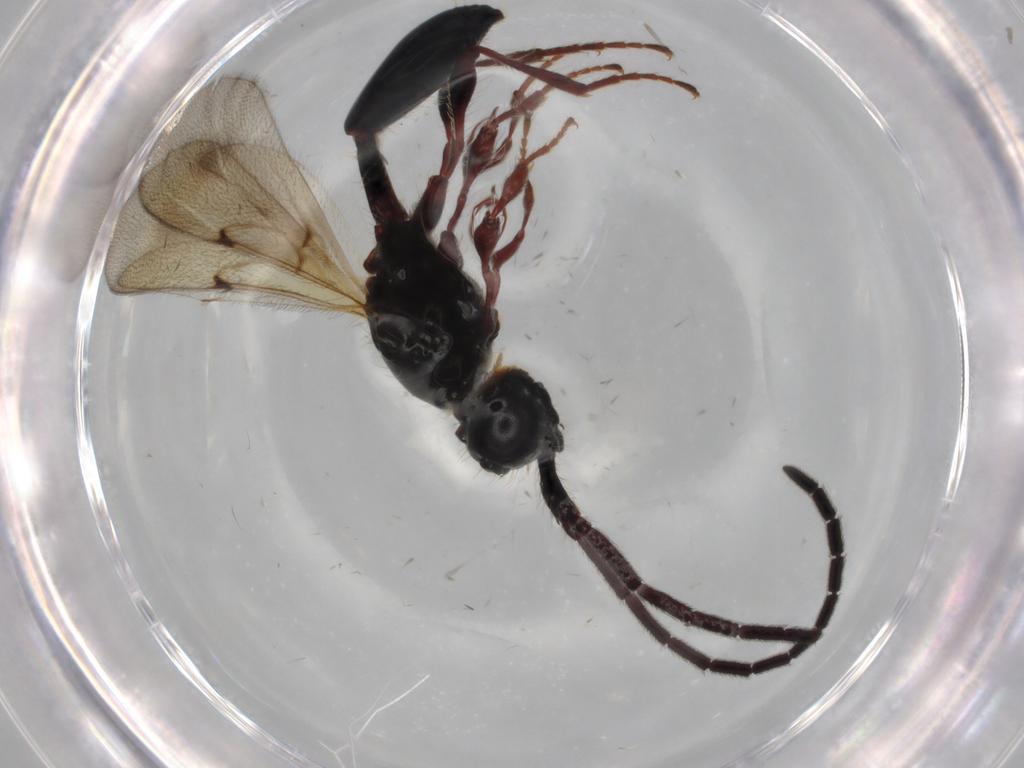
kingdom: Animalia
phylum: Arthropoda
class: Insecta
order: Hymenoptera
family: Diapriidae
